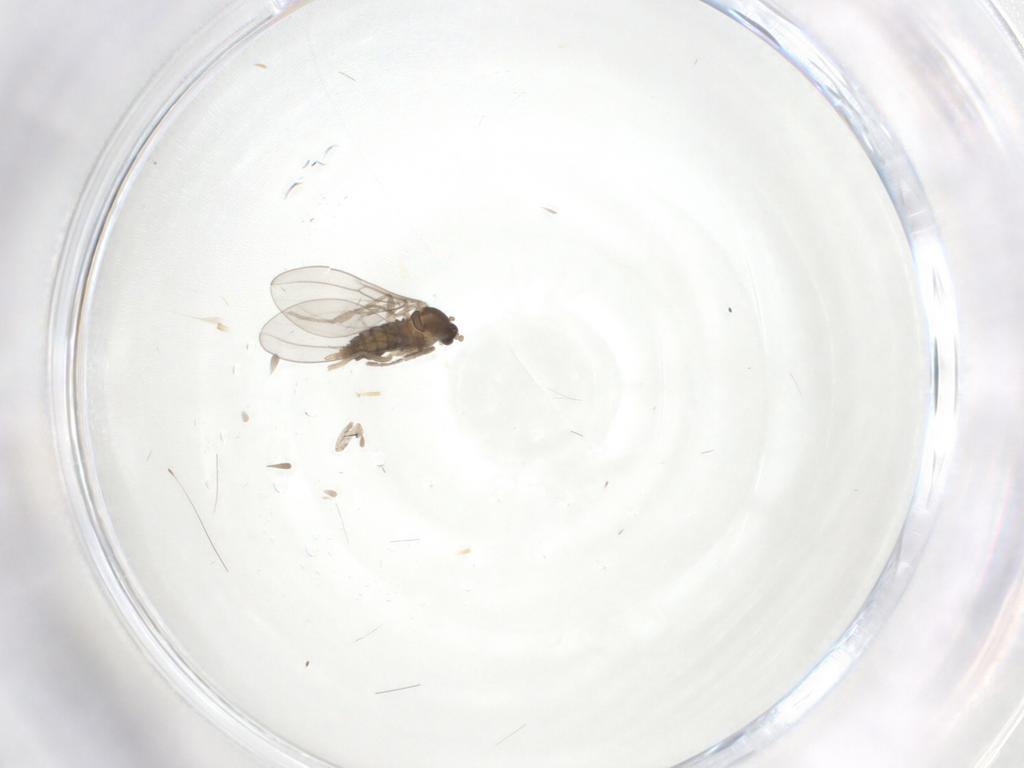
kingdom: Animalia
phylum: Arthropoda
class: Insecta
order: Diptera
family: Cecidomyiidae
